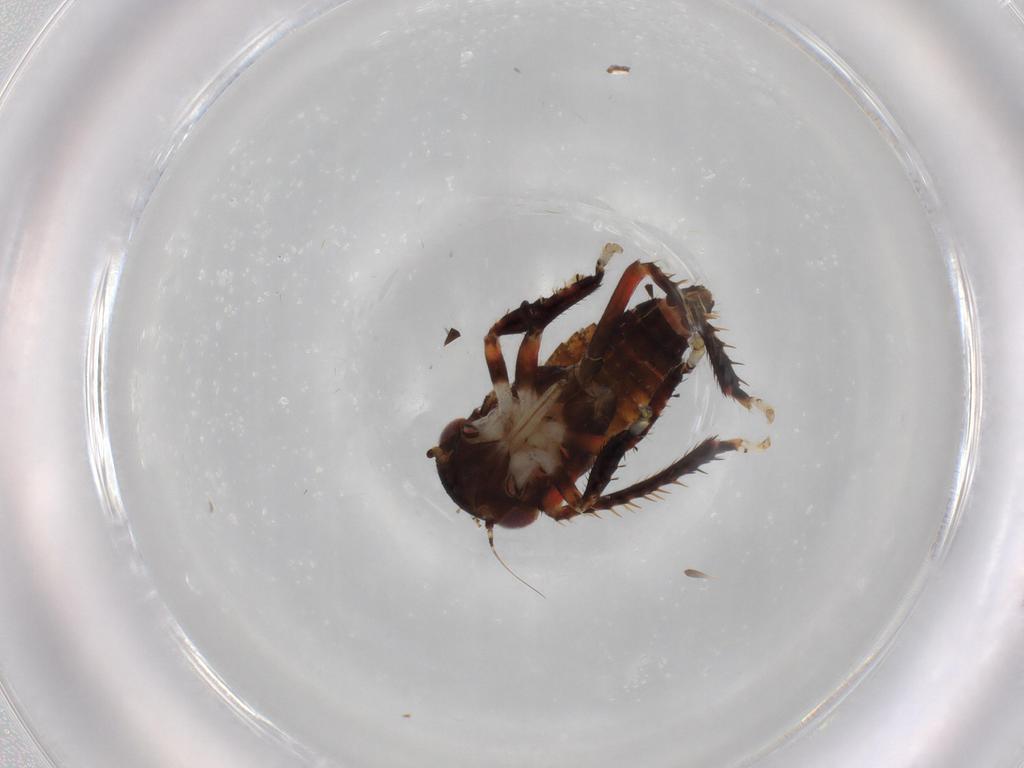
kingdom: Animalia
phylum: Arthropoda
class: Insecta
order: Hemiptera
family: Cicadellidae
